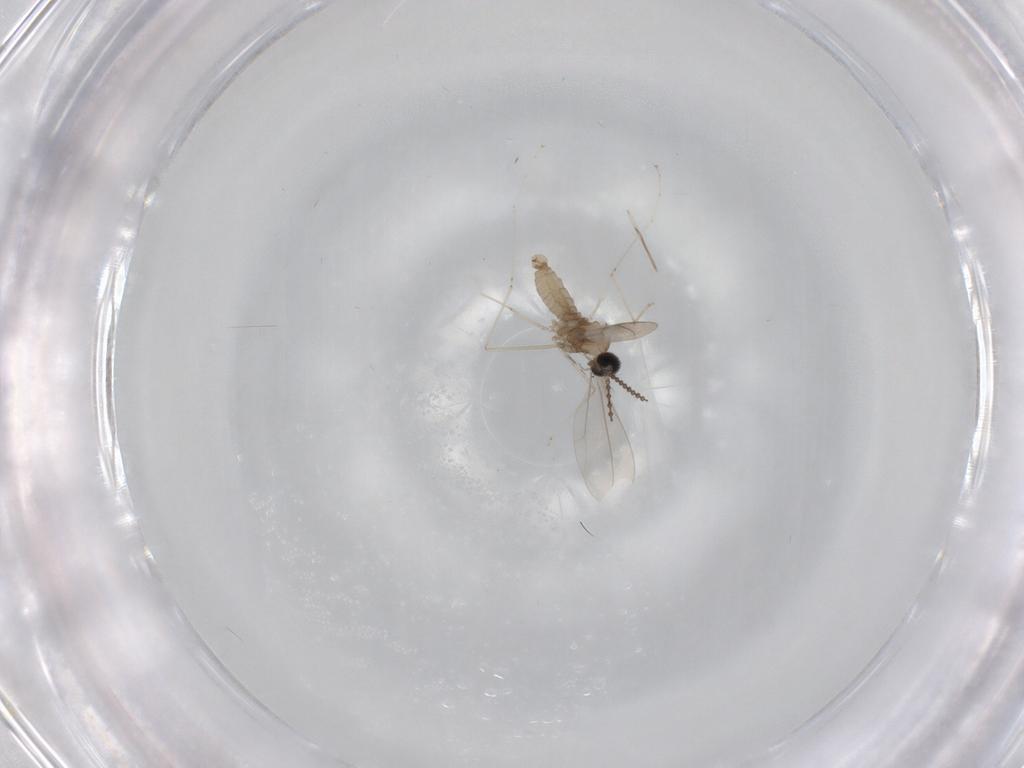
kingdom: Animalia
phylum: Arthropoda
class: Insecta
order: Diptera
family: Cecidomyiidae
